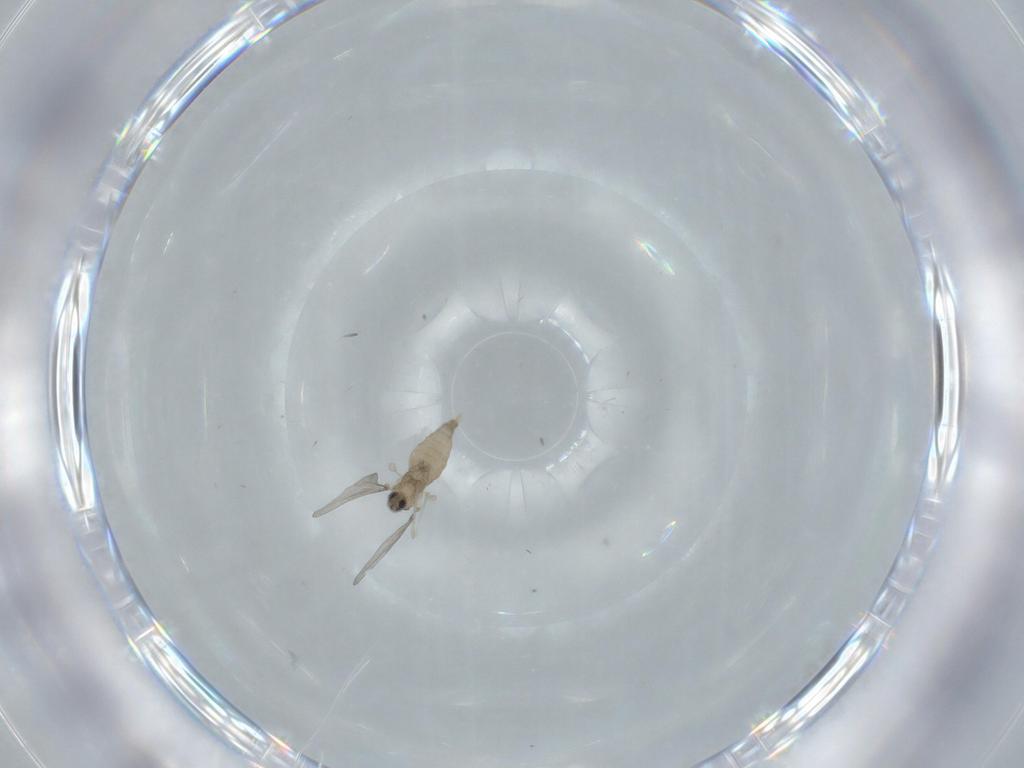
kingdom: Animalia
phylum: Arthropoda
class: Insecta
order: Diptera
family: Cecidomyiidae
